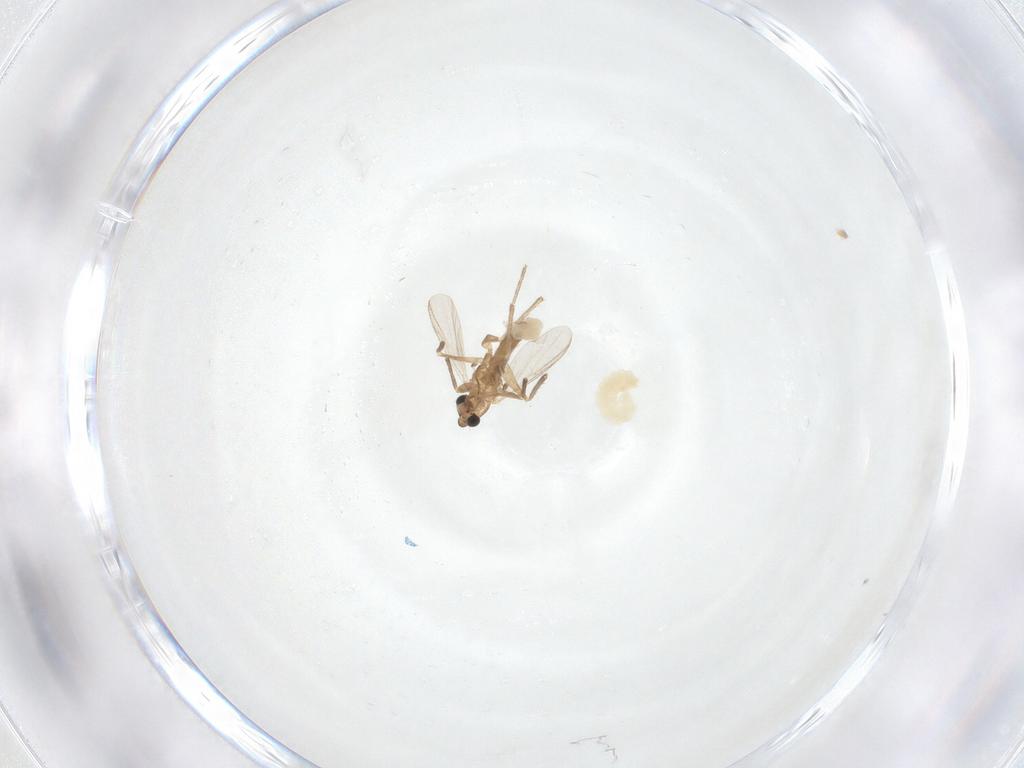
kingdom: Animalia
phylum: Arthropoda
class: Insecta
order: Diptera
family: Chironomidae
